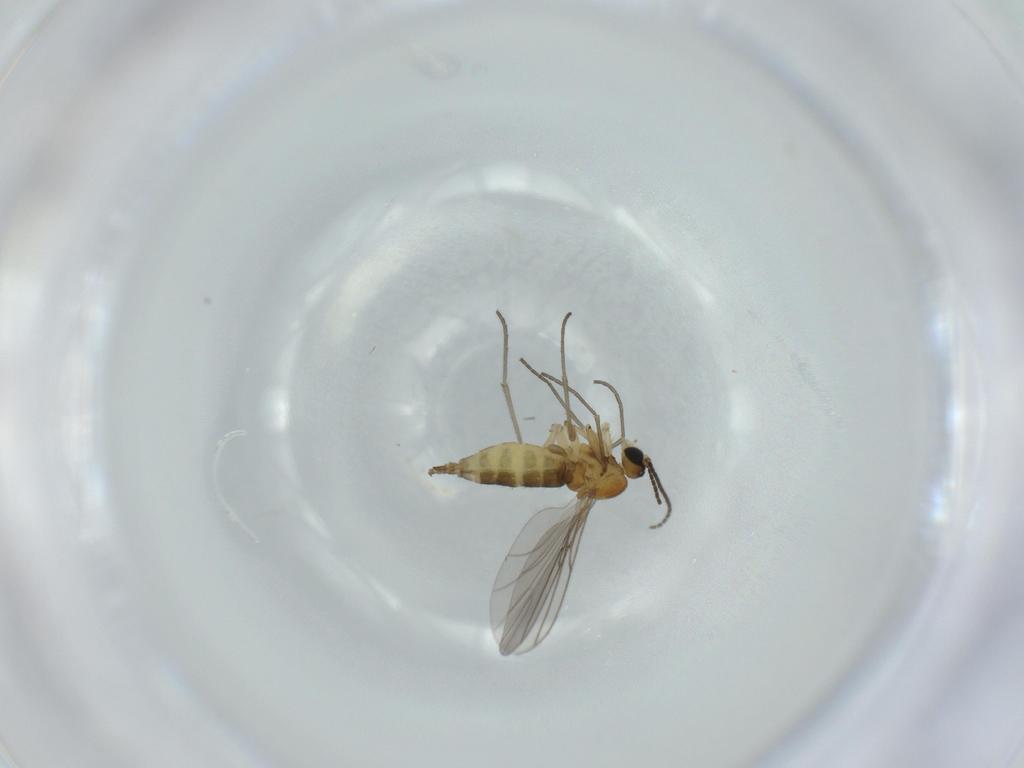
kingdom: Animalia
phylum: Arthropoda
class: Insecta
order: Diptera
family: Sciaridae
